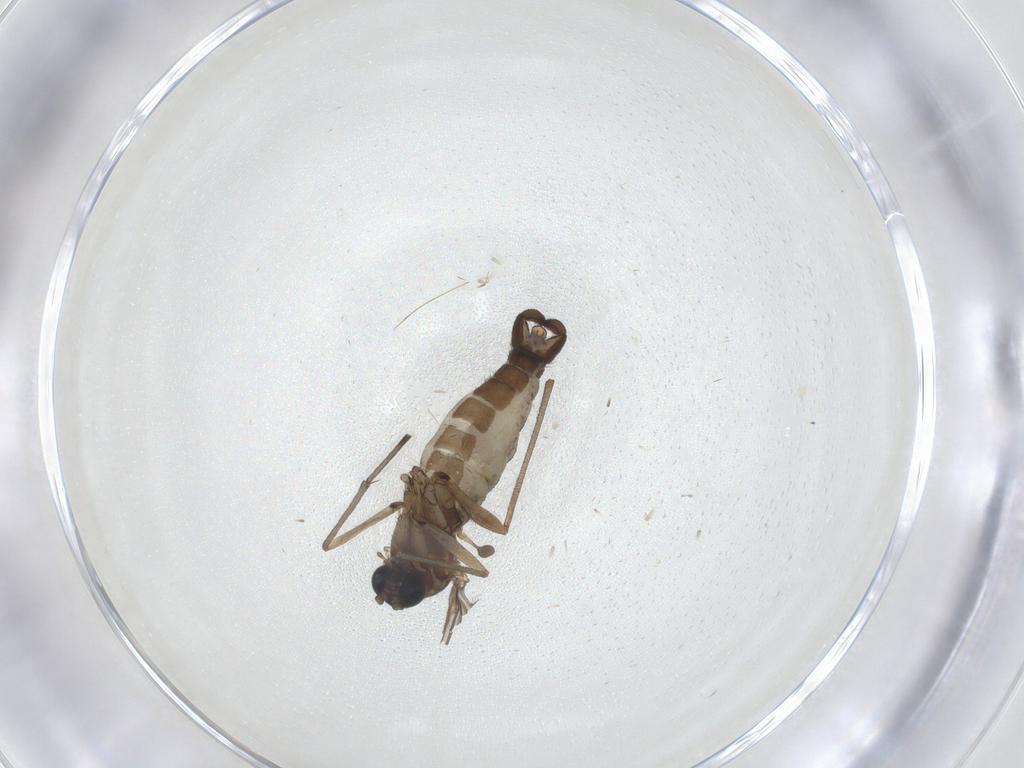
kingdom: Animalia
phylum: Arthropoda
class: Insecta
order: Diptera
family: Sciaridae
